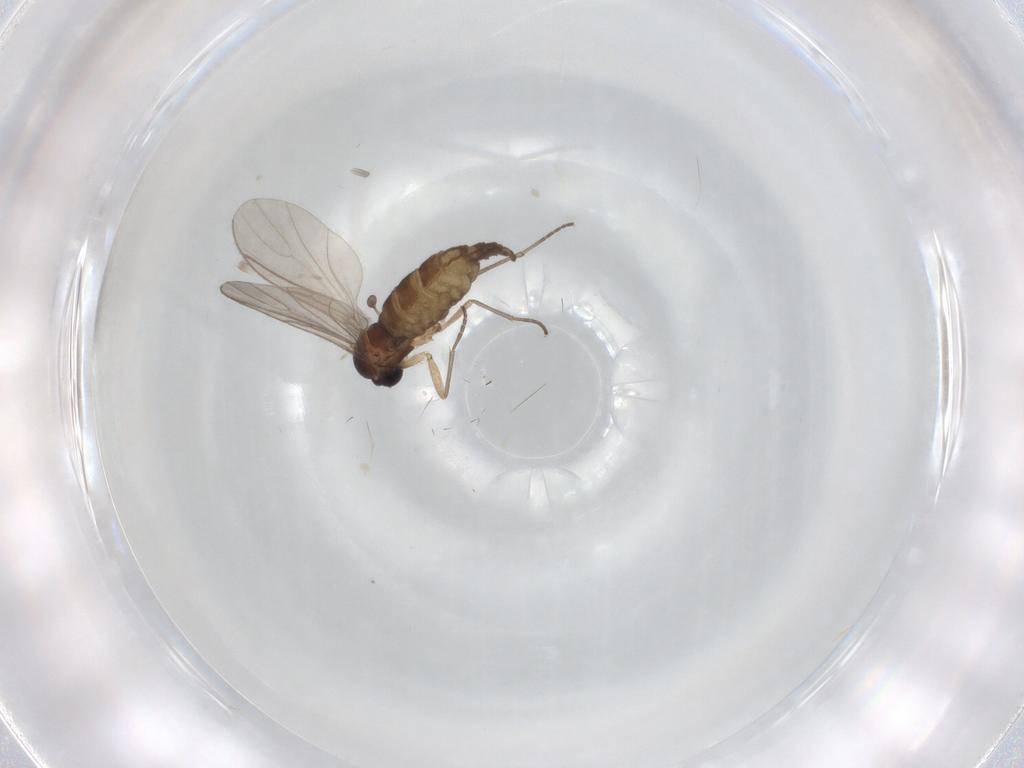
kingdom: Animalia
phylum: Arthropoda
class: Insecta
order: Diptera
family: Sciaridae
